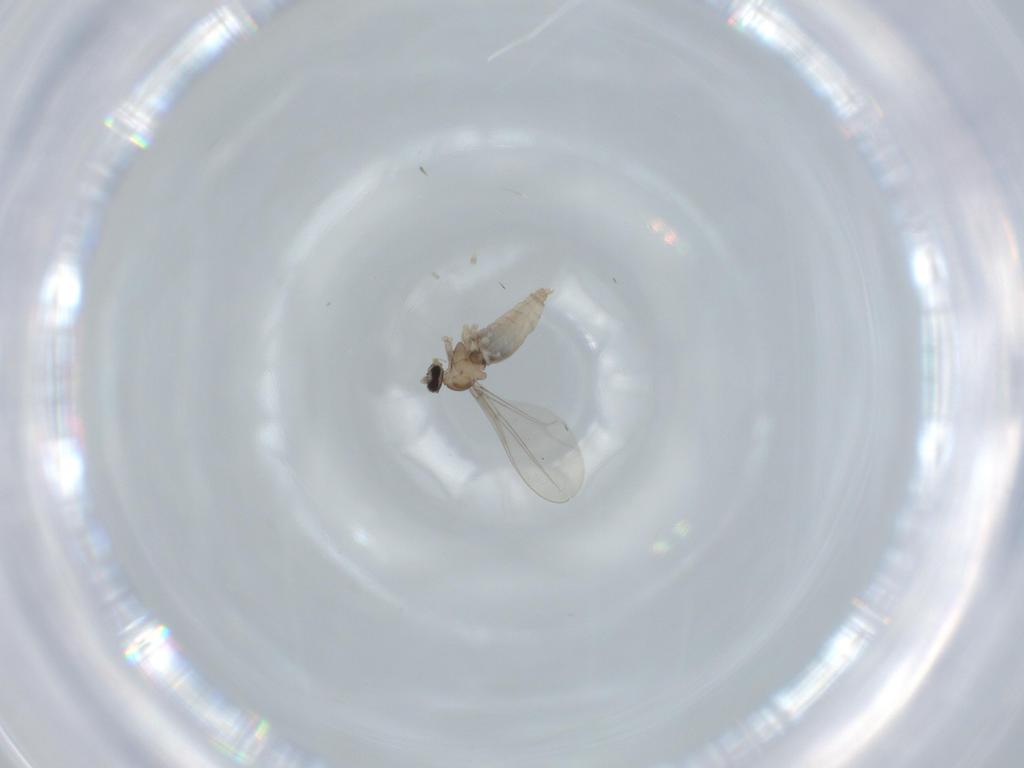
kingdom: Animalia
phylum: Arthropoda
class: Insecta
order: Diptera
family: Cecidomyiidae
